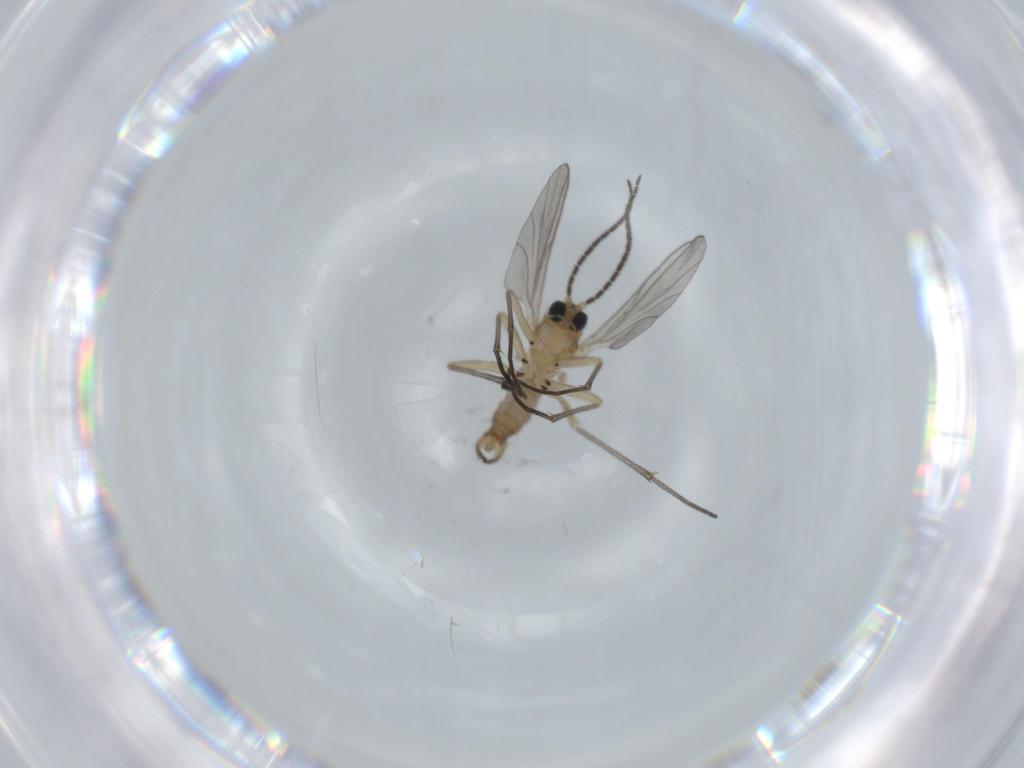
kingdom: Animalia
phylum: Arthropoda
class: Insecta
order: Diptera
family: Sciaridae
